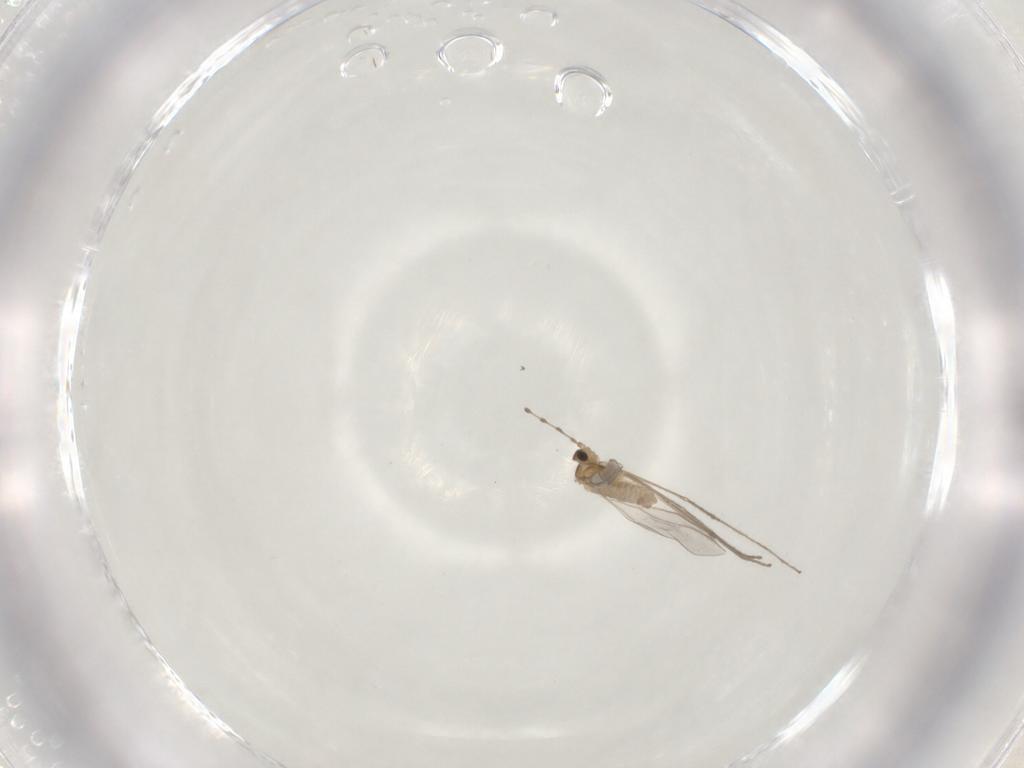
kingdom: Animalia
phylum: Arthropoda
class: Insecta
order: Diptera
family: Cecidomyiidae
